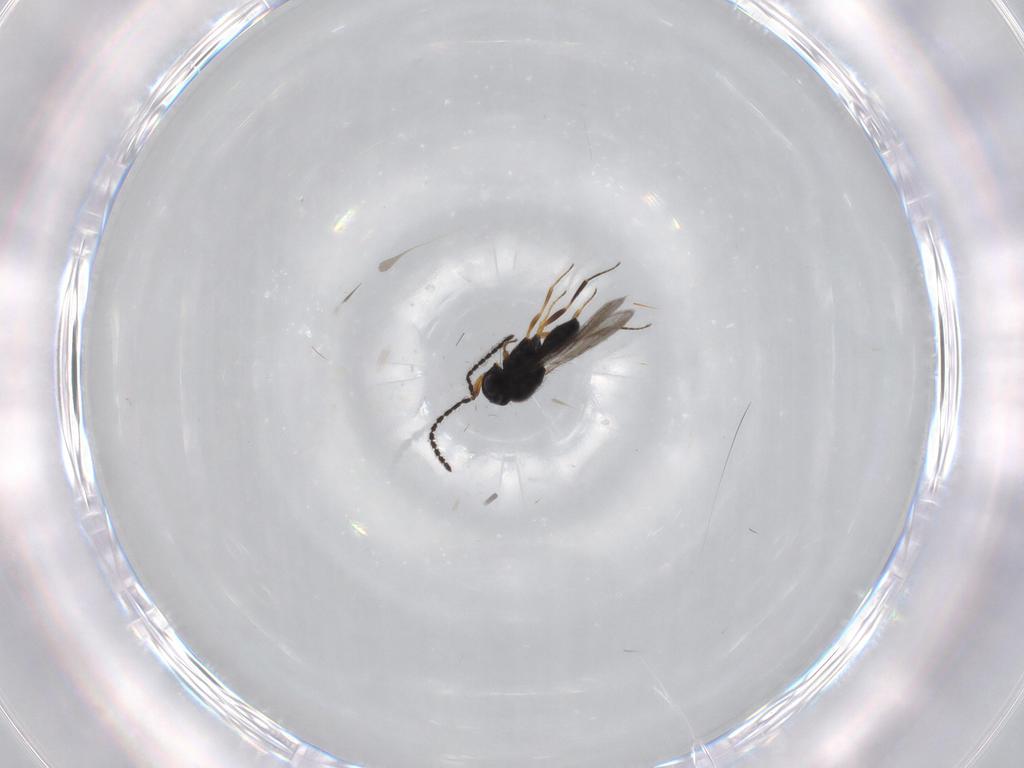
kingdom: Animalia
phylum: Arthropoda
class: Insecta
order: Hymenoptera
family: Scelionidae
